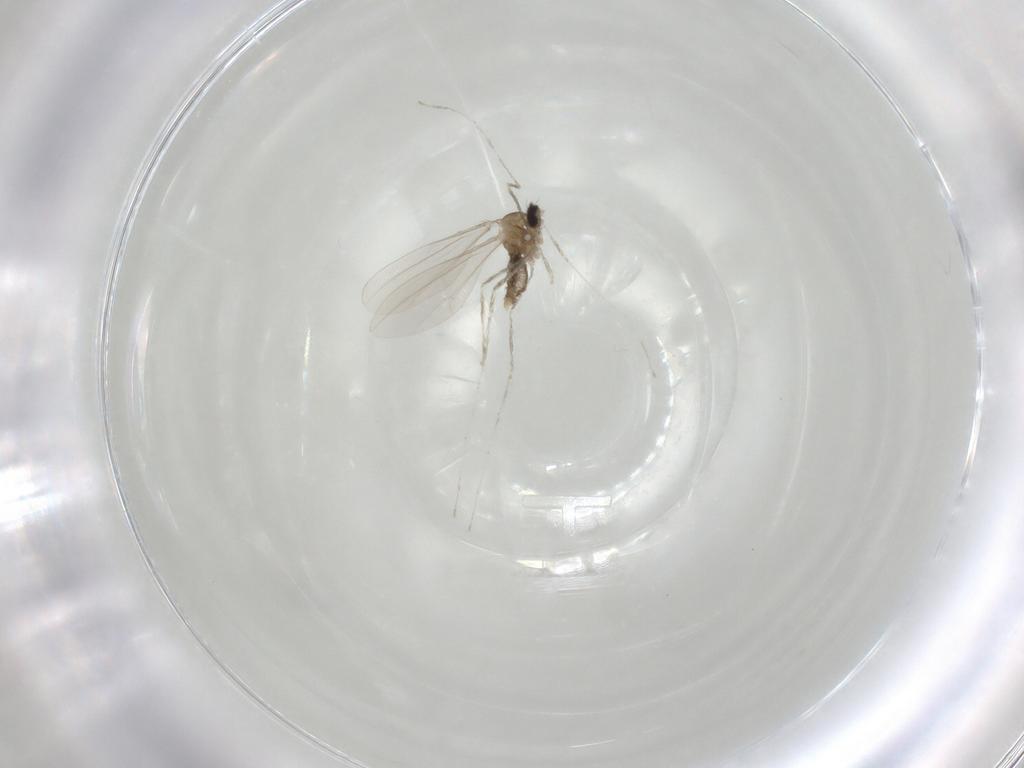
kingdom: Animalia
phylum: Arthropoda
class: Insecta
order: Diptera
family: Cecidomyiidae
